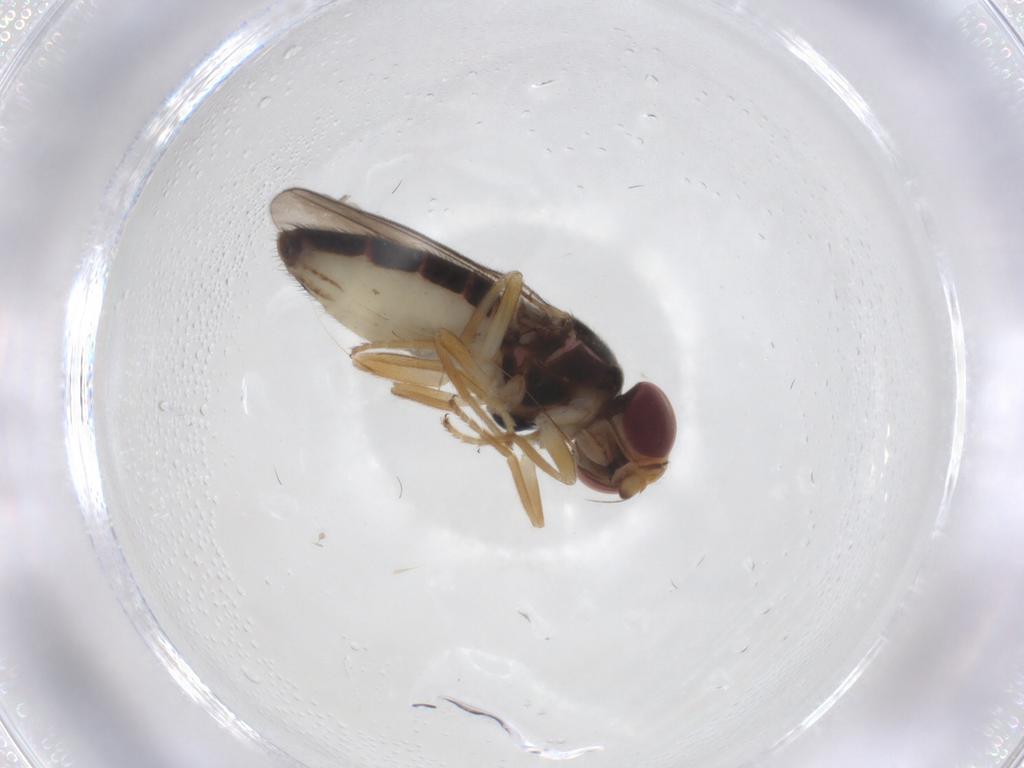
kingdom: Animalia
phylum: Arthropoda
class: Insecta
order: Diptera
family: Chloropidae
